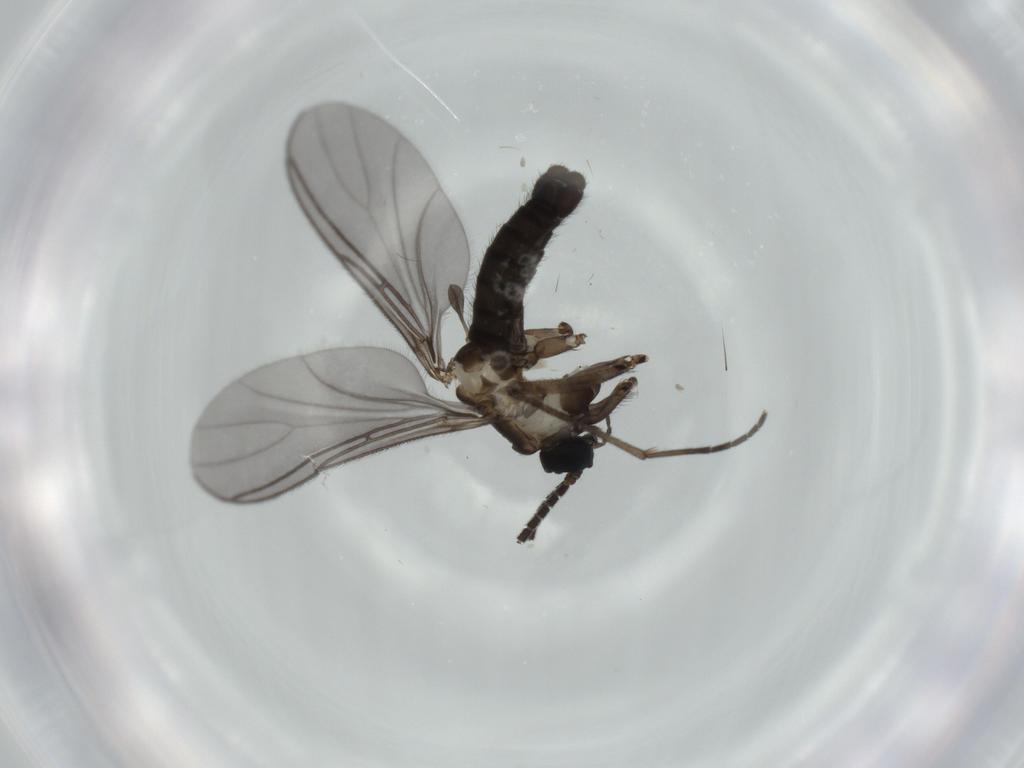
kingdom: Animalia
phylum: Arthropoda
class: Insecta
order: Diptera
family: Sciaridae
